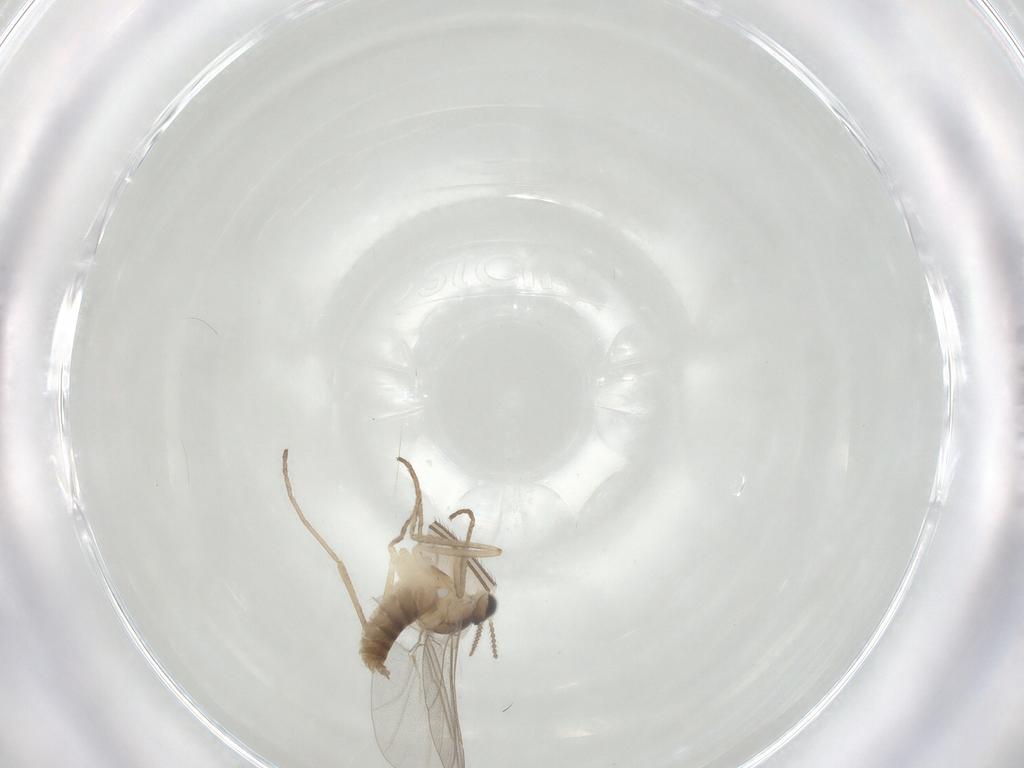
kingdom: Animalia
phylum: Arthropoda
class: Insecta
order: Diptera
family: Cecidomyiidae
